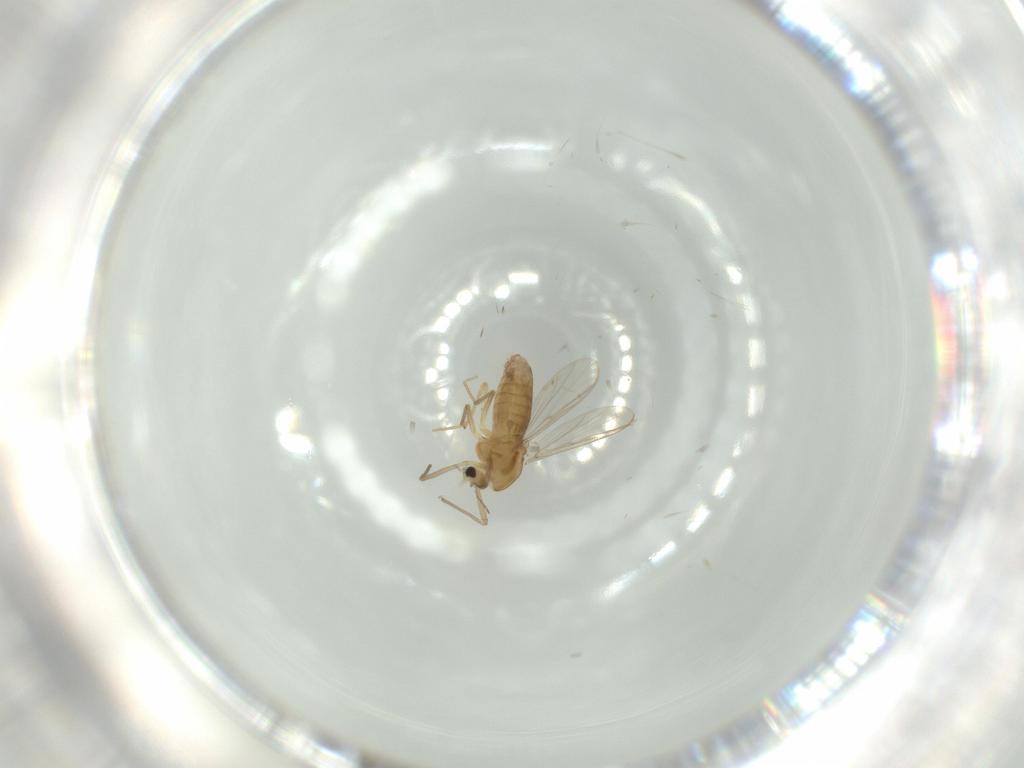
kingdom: Animalia
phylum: Arthropoda
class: Insecta
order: Diptera
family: Chironomidae
